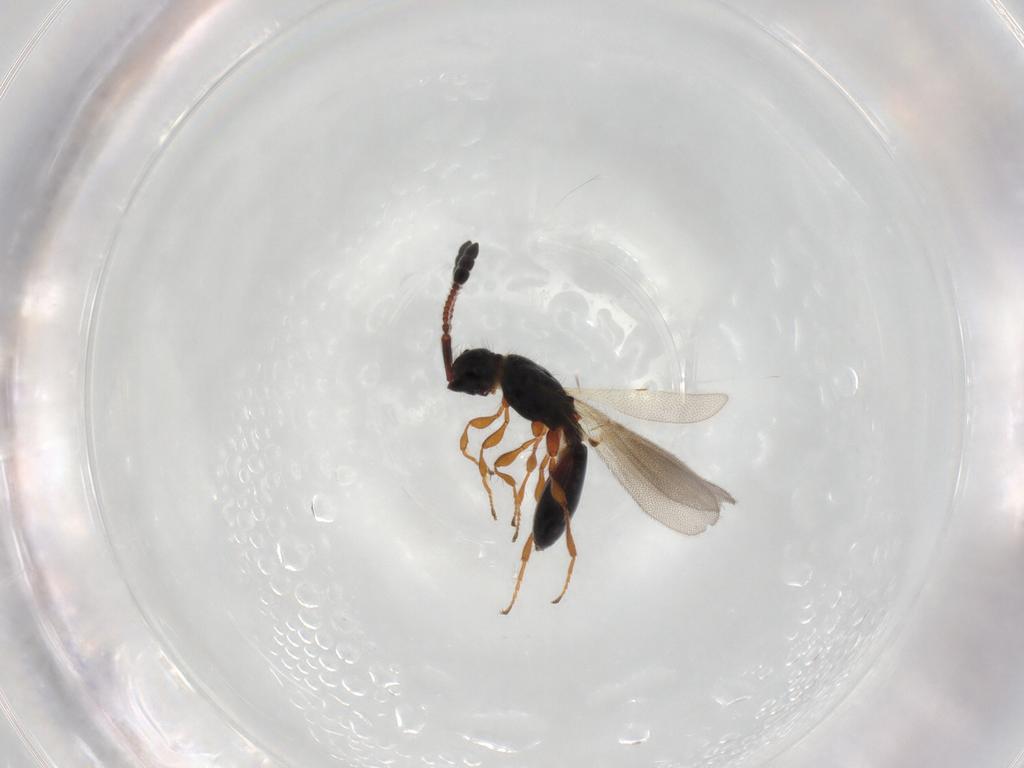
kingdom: Animalia
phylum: Arthropoda
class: Insecta
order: Hymenoptera
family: Diapriidae
